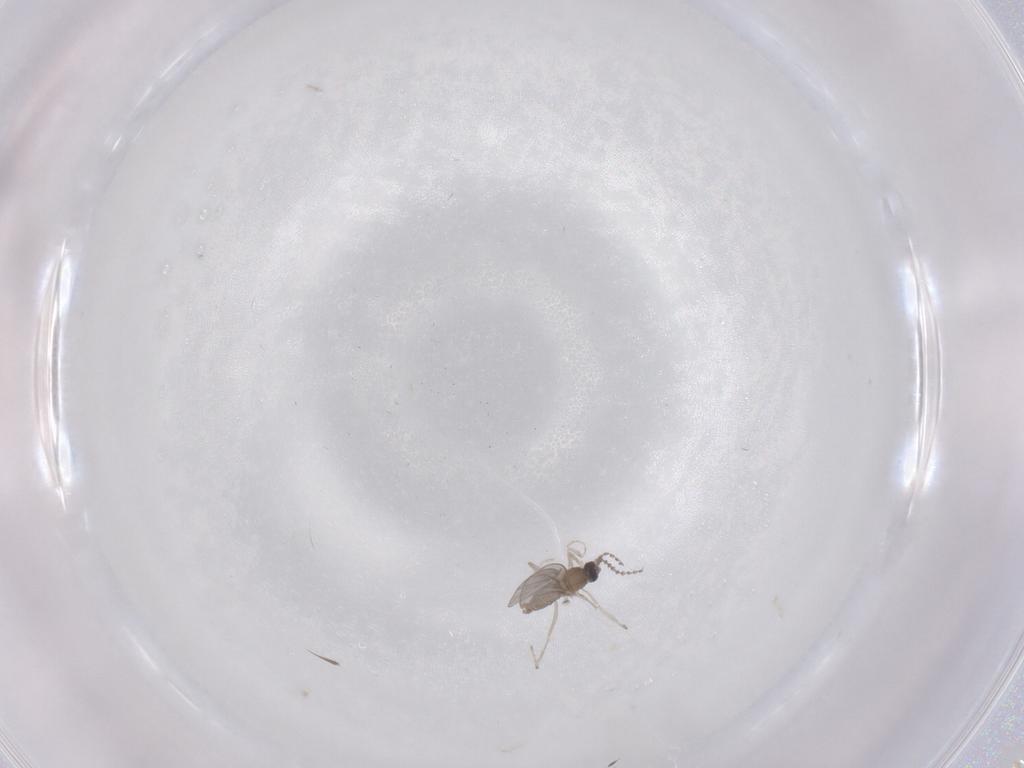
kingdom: Animalia
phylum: Arthropoda
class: Insecta
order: Diptera
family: Cecidomyiidae
